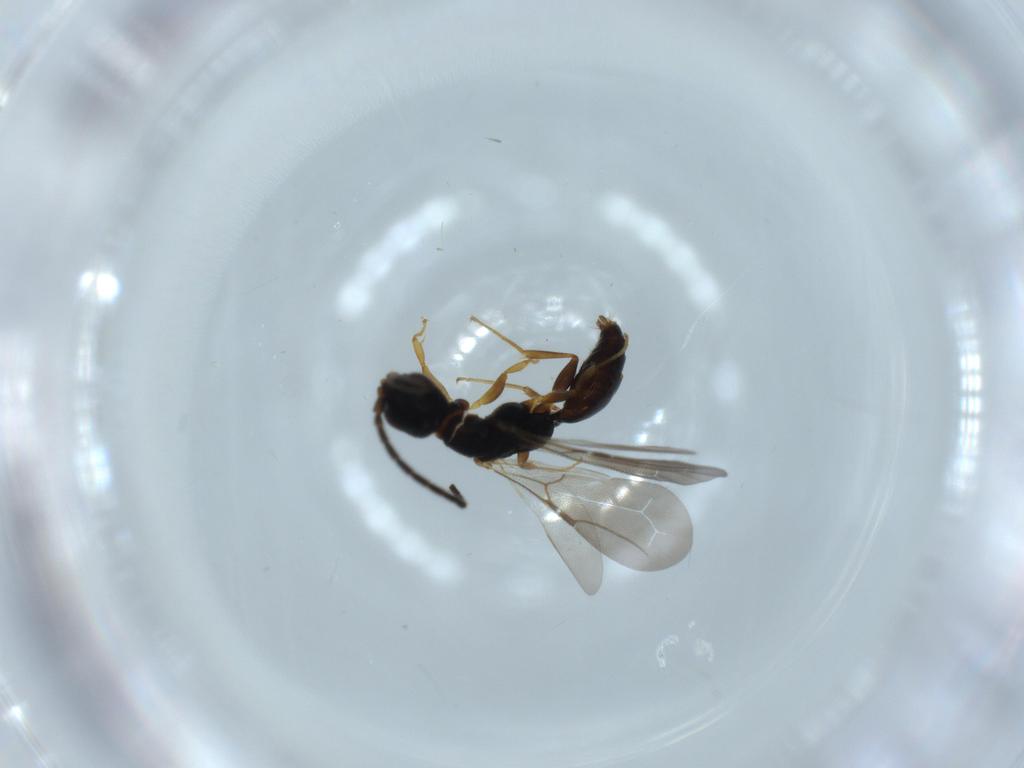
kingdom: Animalia
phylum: Arthropoda
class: Insecta
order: Hymenoptera
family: Bethylidae
